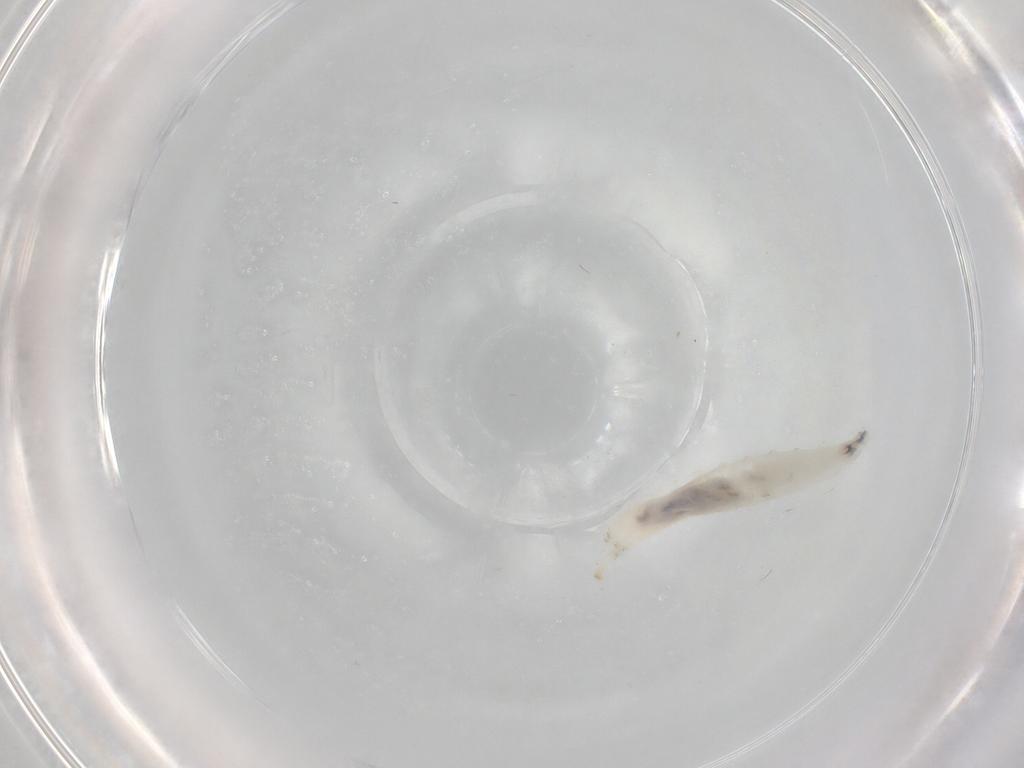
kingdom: Animalia
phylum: Arthropoda
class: Insecta
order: Diptera
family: Drosophilidae
